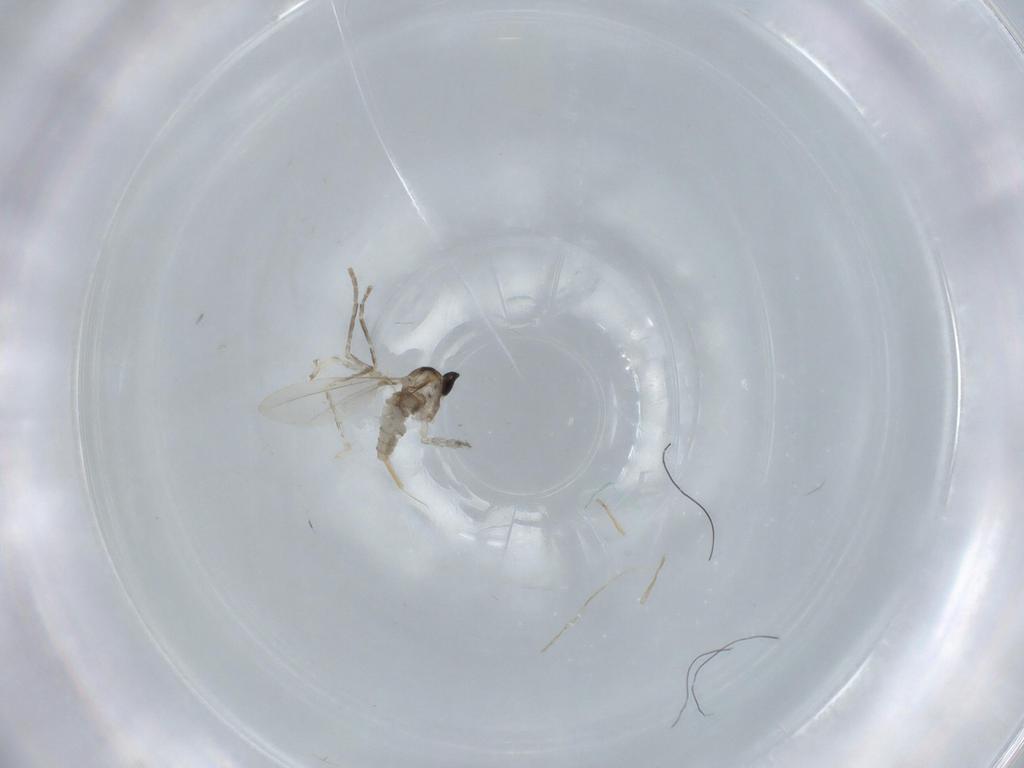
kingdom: Animalia
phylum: Arthropoda
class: Insecta
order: Diptera
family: Cecidomyiidae
